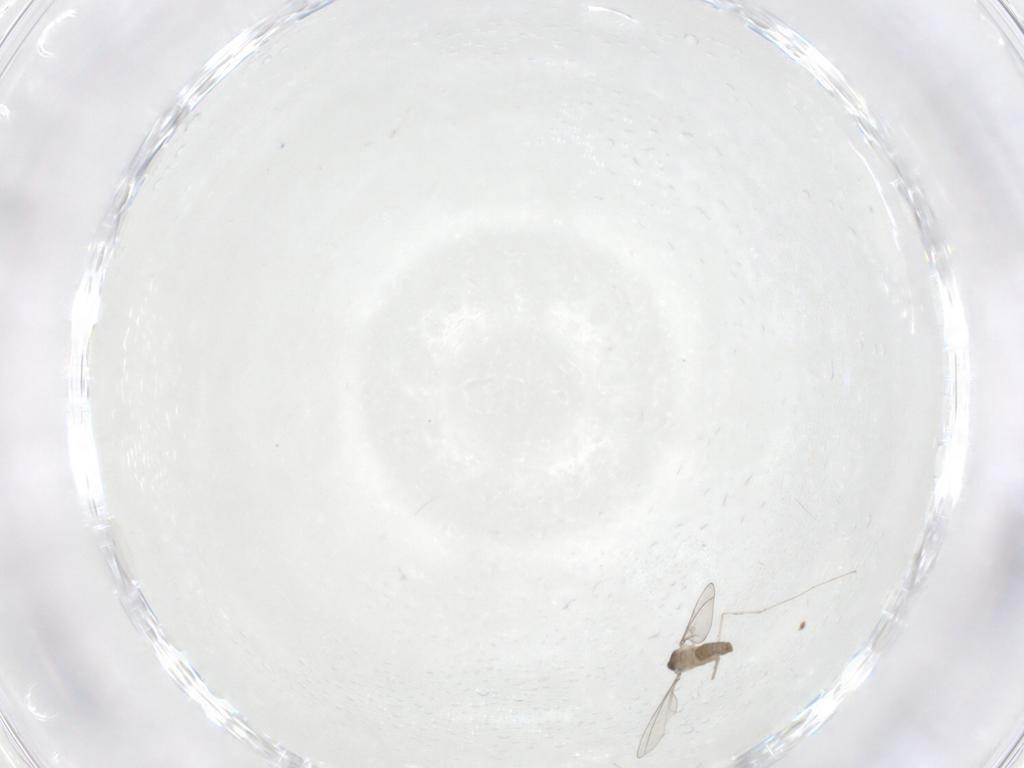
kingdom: Animalia
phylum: Arthropoda
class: Insecta
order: Diptera
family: Cecidomyiidae
